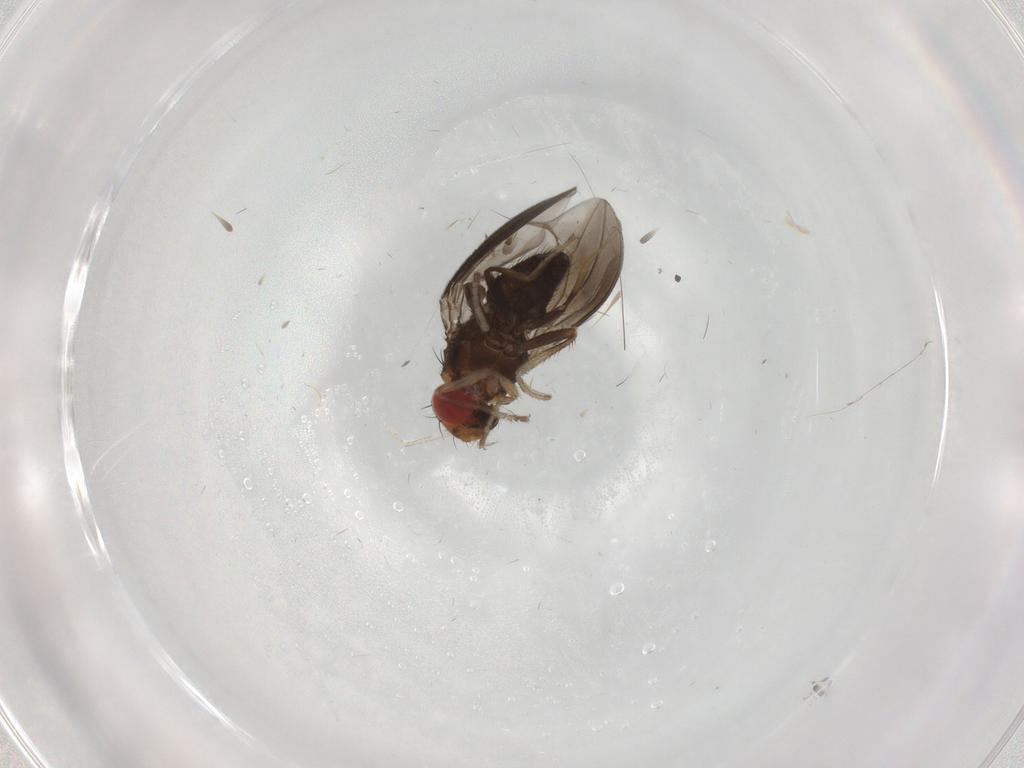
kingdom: Animalia
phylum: Arthropoda
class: Insecta
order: Diptera
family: Drosophilidae
